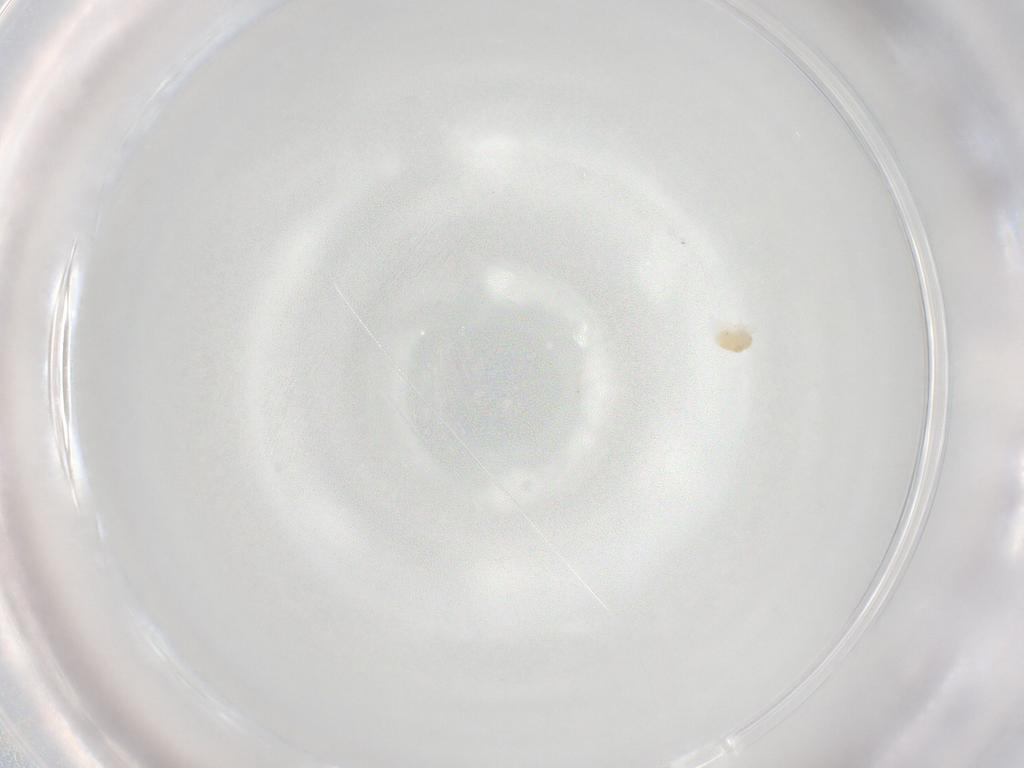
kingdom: Animalia
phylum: Arthropoda
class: Arachnida
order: Trombidiformes
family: Eupodidae
